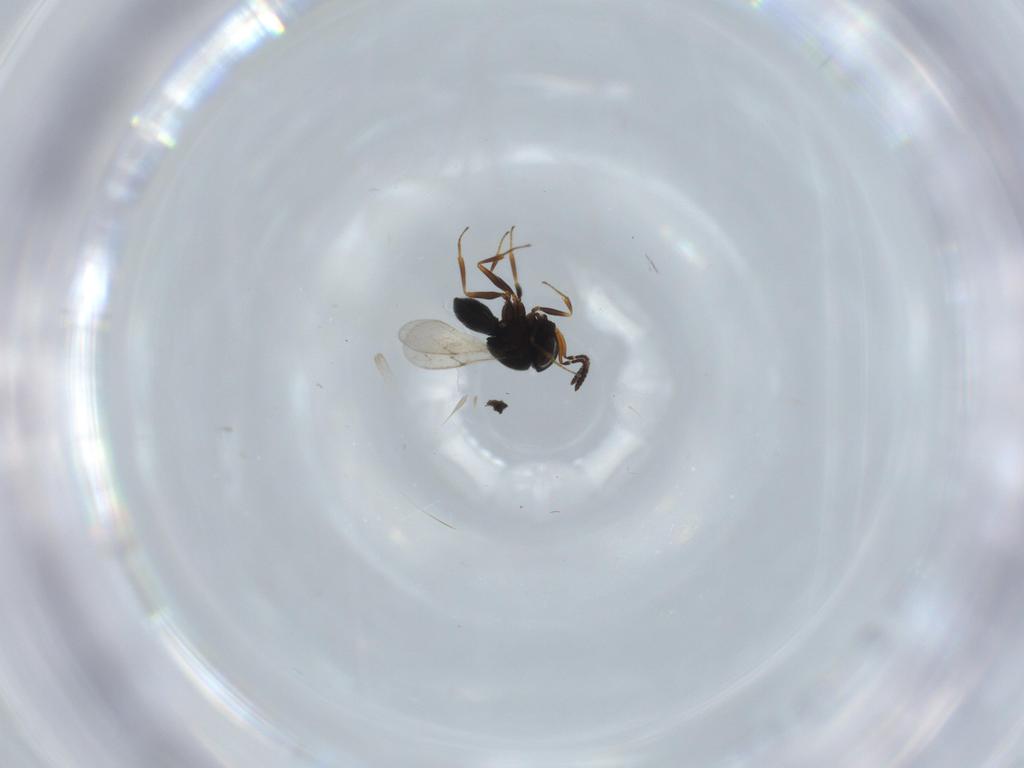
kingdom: Animalia
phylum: Arthropoda
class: Insecta
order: Hymenoptera
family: Scelionidae
